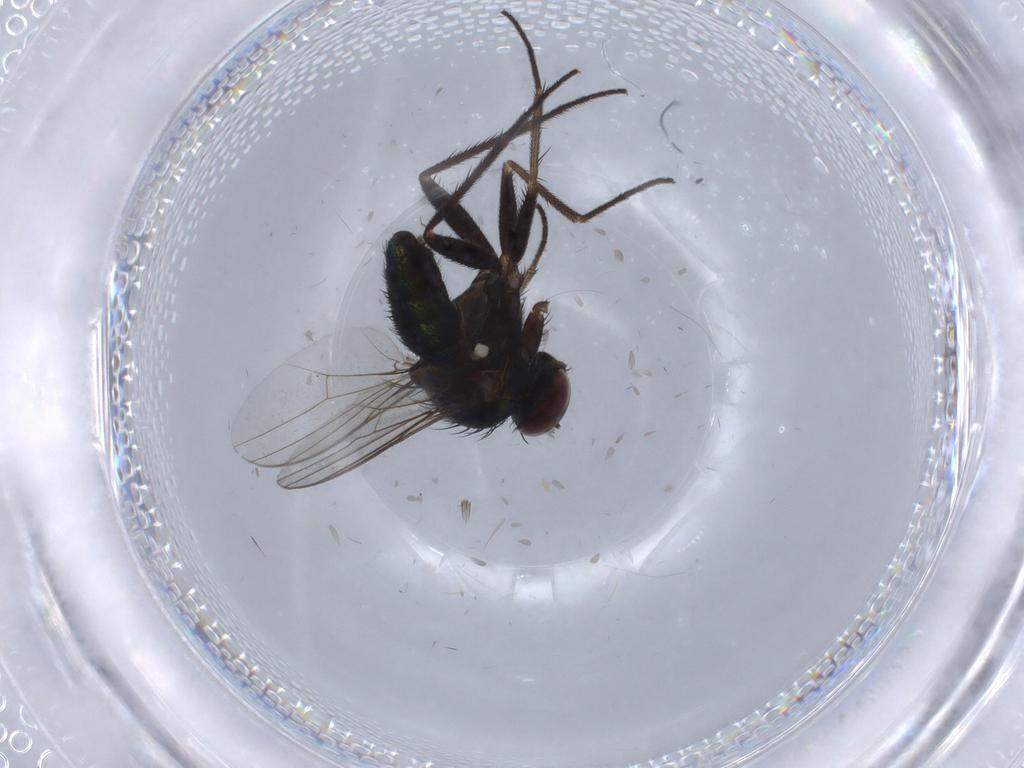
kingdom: Animalia
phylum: Arthropoda
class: Insecta
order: Diptera
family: Dolichopodidae
